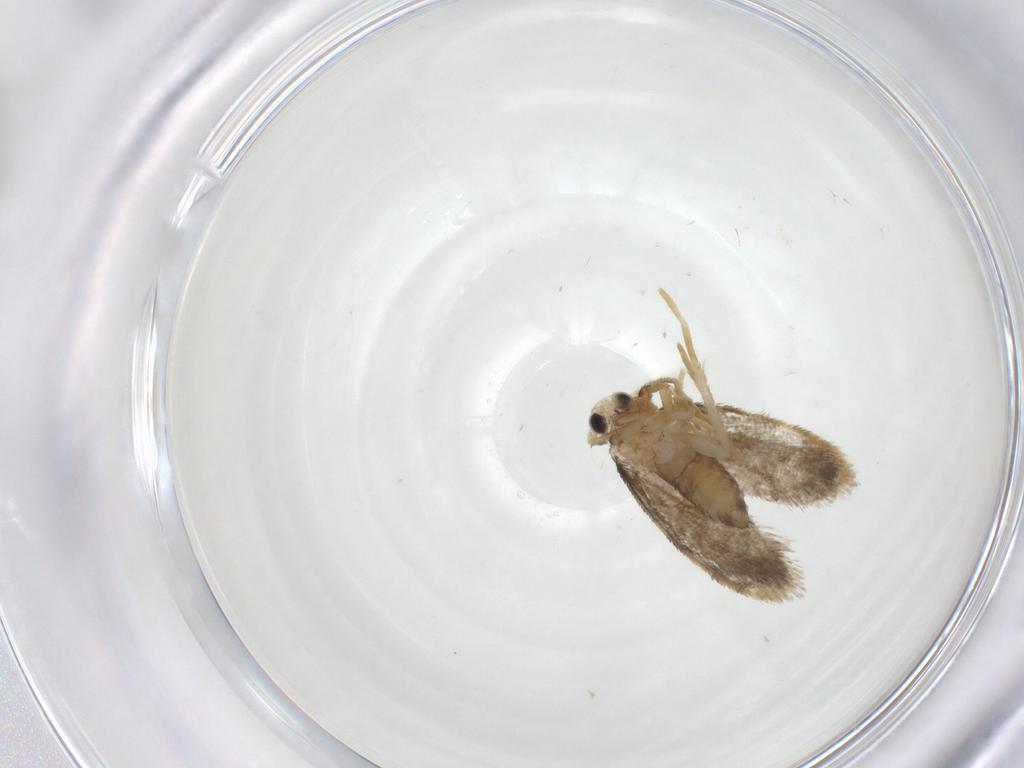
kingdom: Animalia
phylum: Arthropoda
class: Insecta
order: Lepidoptera
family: Psychidae
